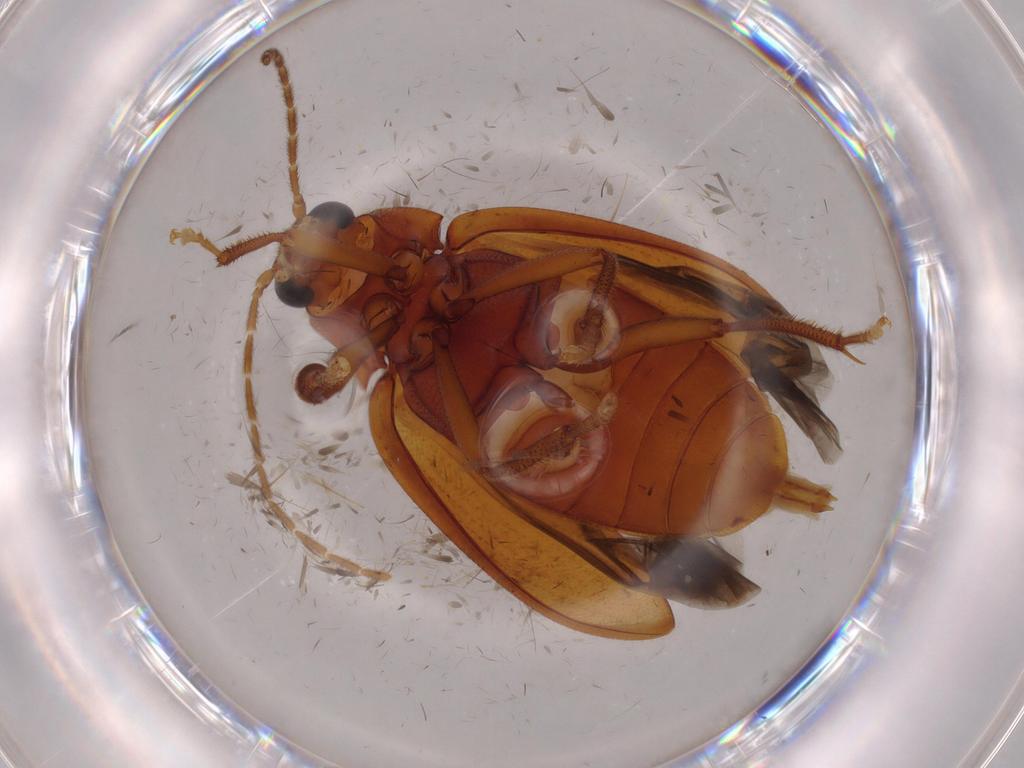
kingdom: Animalia
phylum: Arthropoda
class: Insecta
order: Coleoptera
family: Ptilodactylidae
